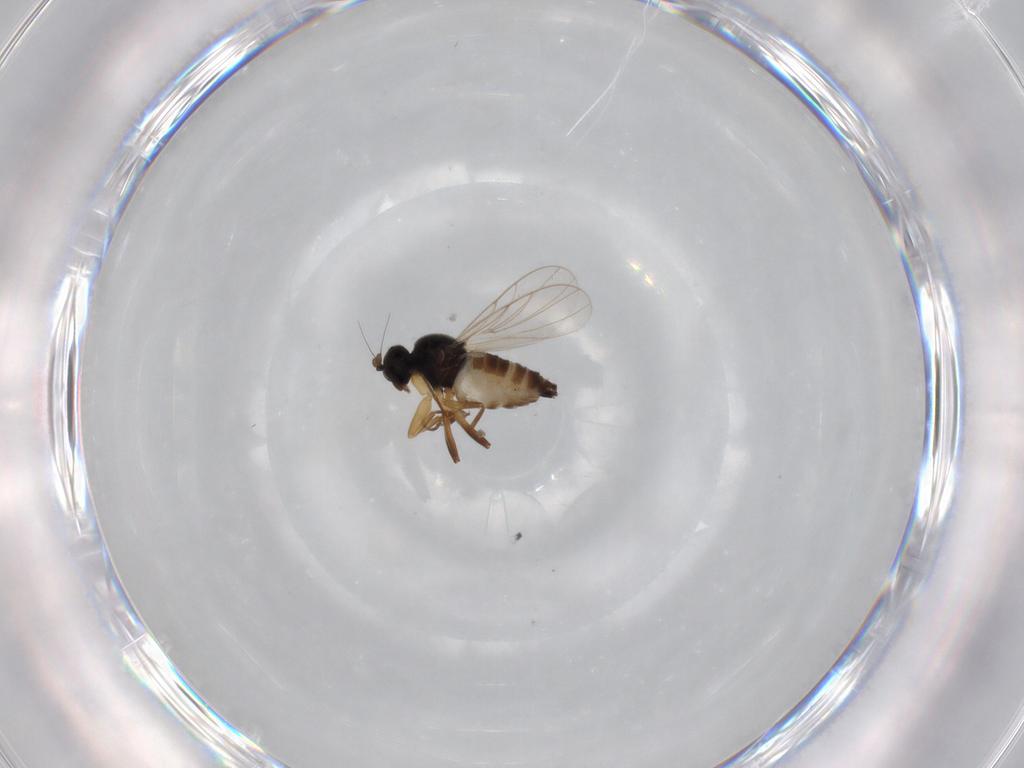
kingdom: Animalia
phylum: Arthropoda
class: Insecta
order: Diptera
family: Hybotidae
